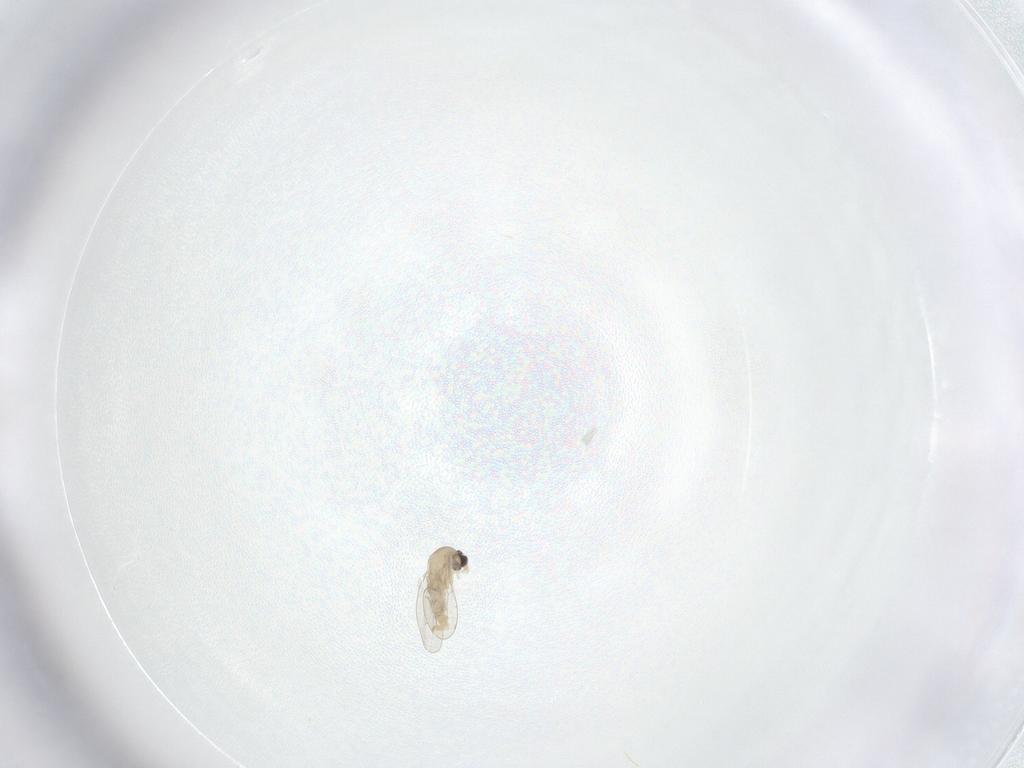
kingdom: Animalia
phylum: Arthropoda
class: Insecta
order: Diptera
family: Cecidomyiidae
